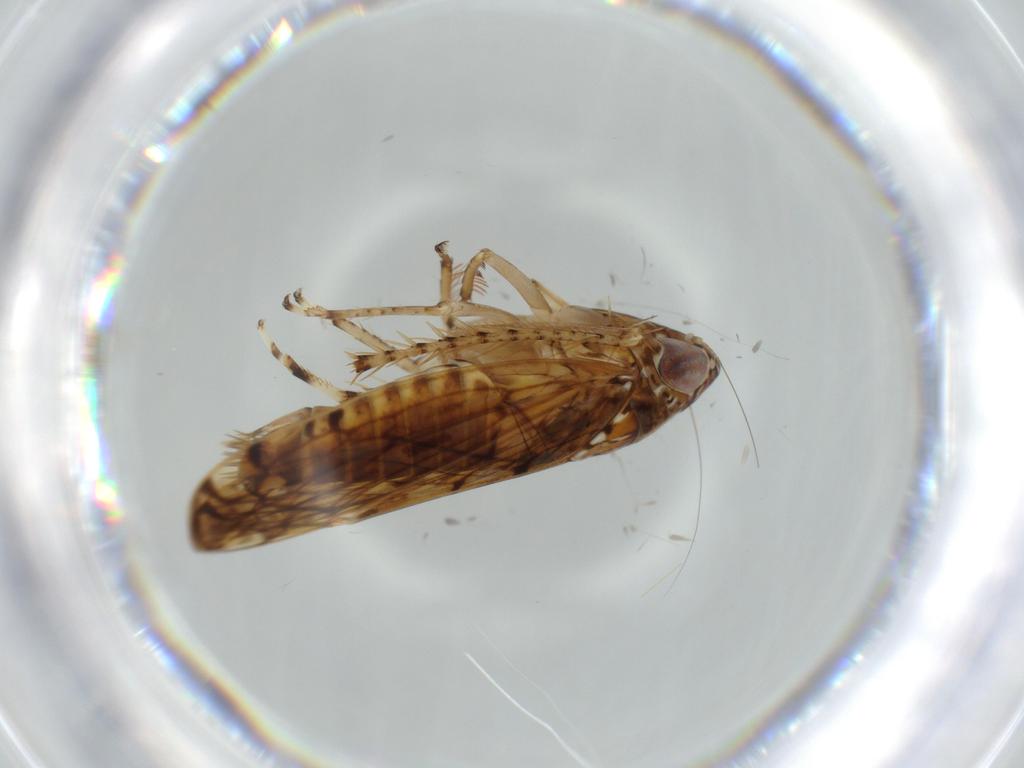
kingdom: Animalia
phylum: Arthropoda
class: Insecta
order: Hemiptera
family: Cicadellidae
